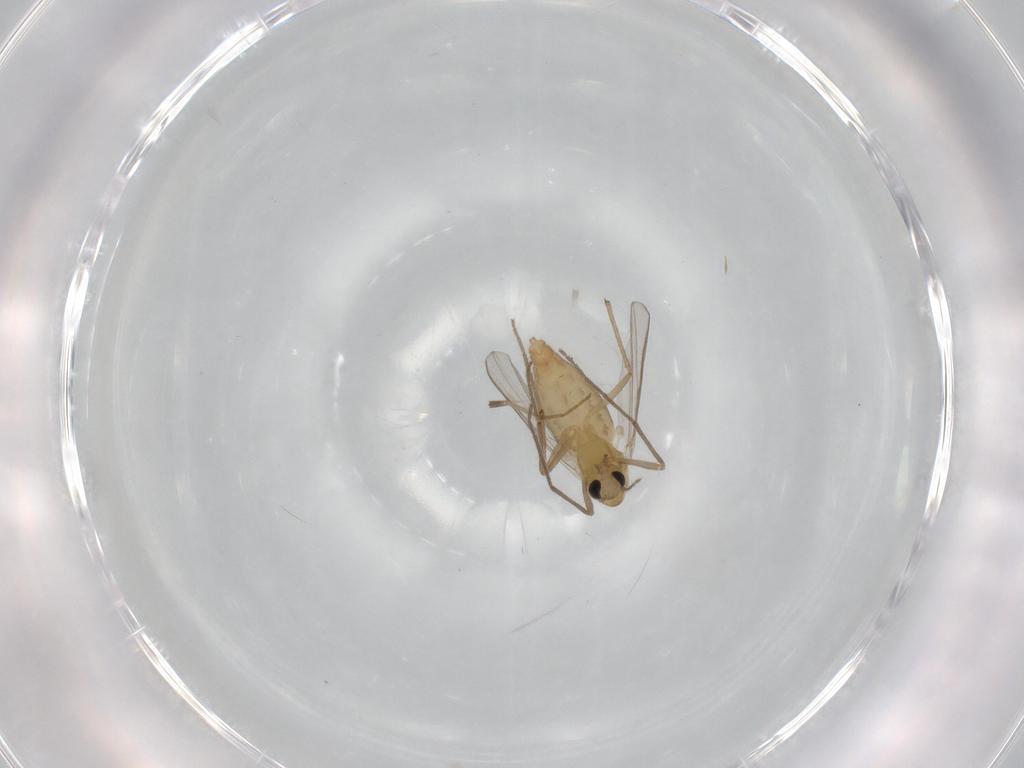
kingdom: Animalia
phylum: Arthropoda
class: Insecta
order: Diptera
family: Chironomidae
